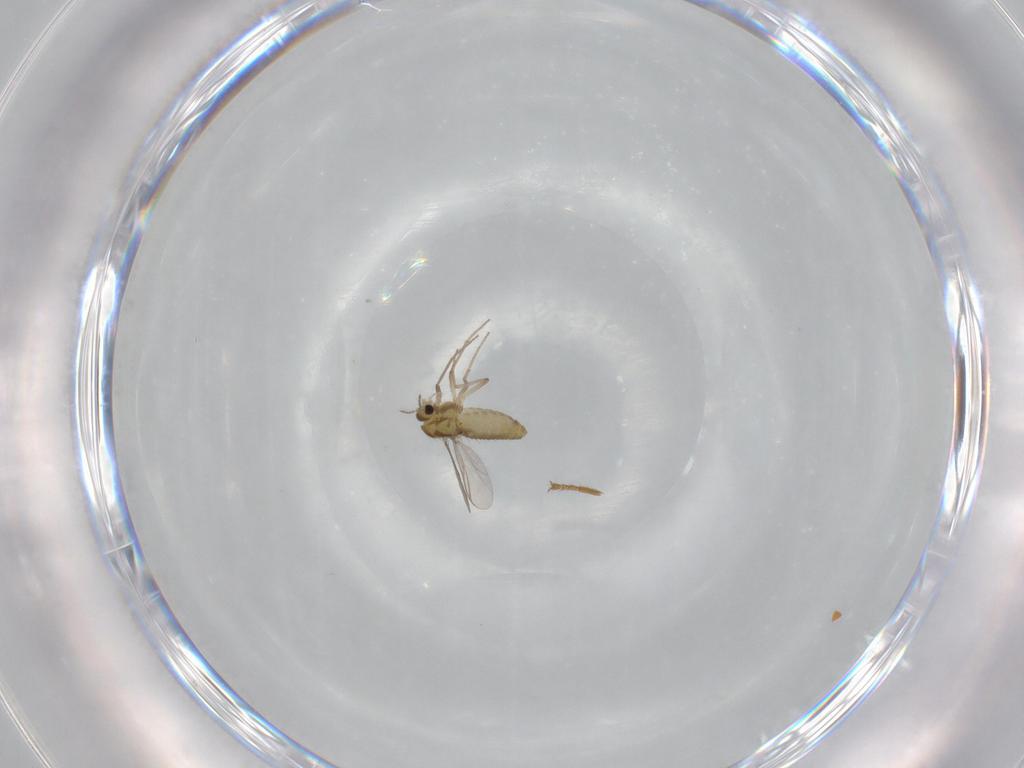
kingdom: Animalia
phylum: Arthropoda
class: Insecta
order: Diptera
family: Chironomidae
